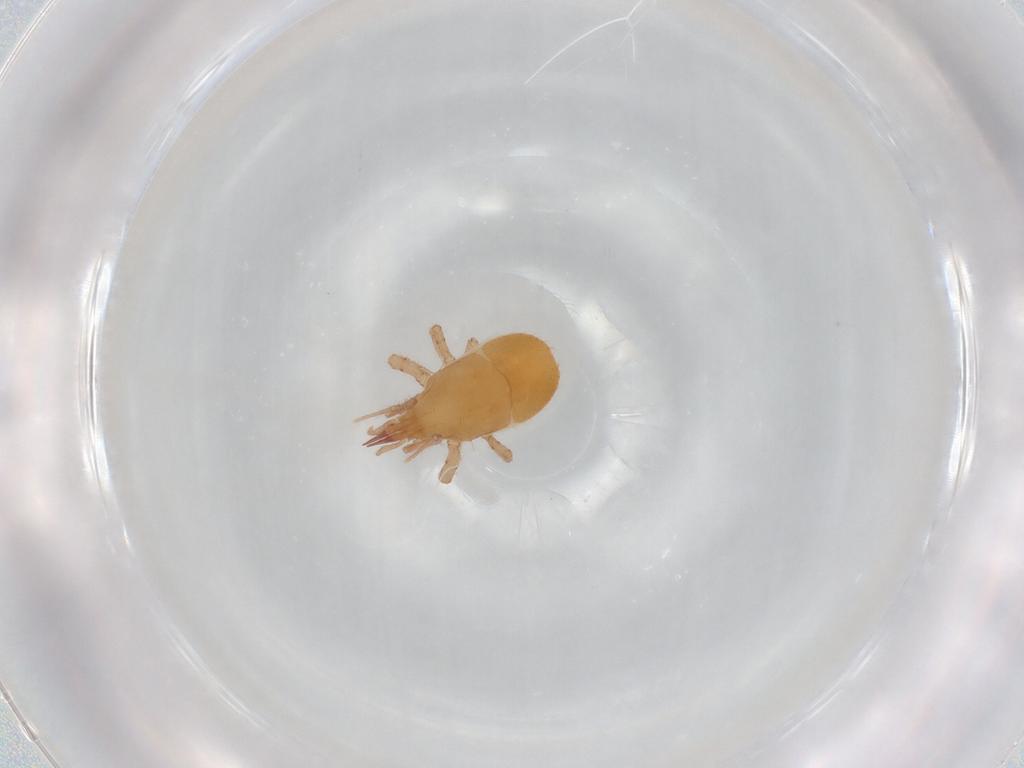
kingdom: Animalia
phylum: Arthropoda
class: Arachnida
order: Trombidiformes
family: Rhagidiidae
